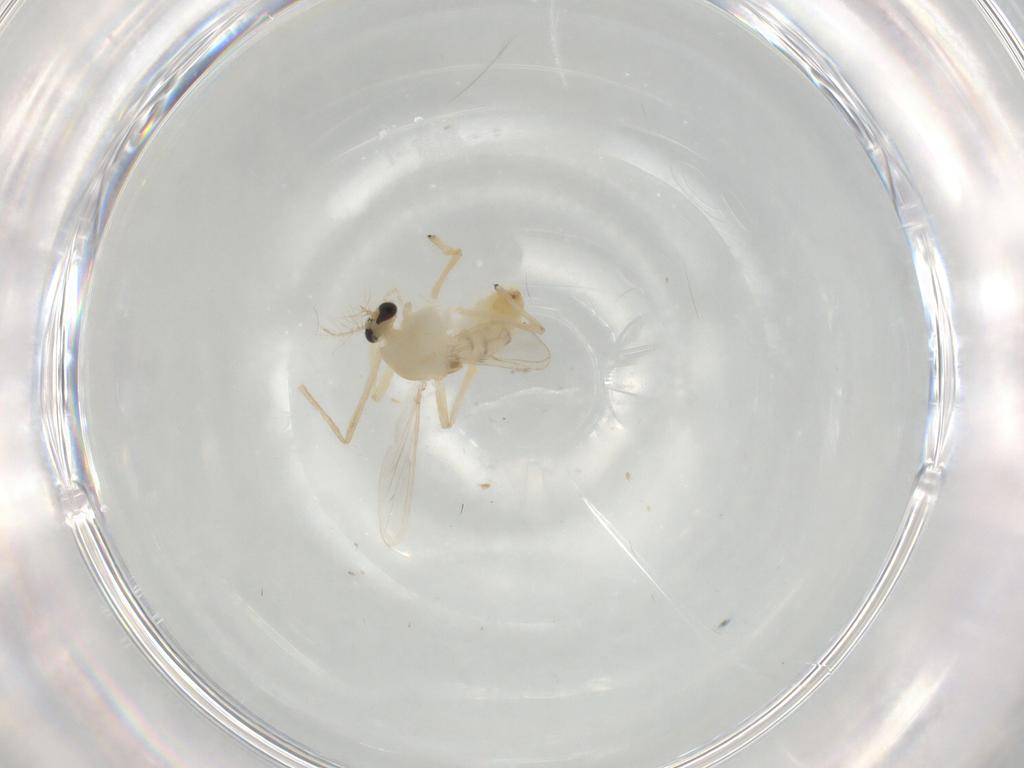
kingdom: Animalia
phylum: Arthropoda
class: Insecta
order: Diptera
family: Chironomidae
